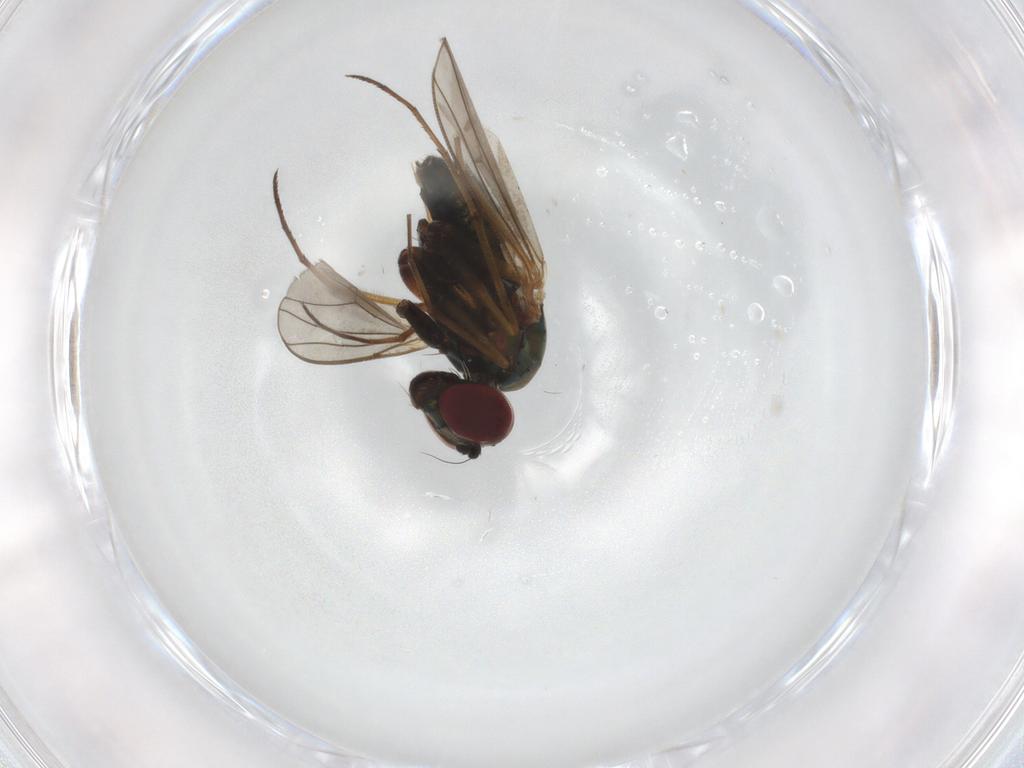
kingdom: Animalia
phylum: Arthropoda
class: Insecta
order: Diptera
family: Dolichopodidae
